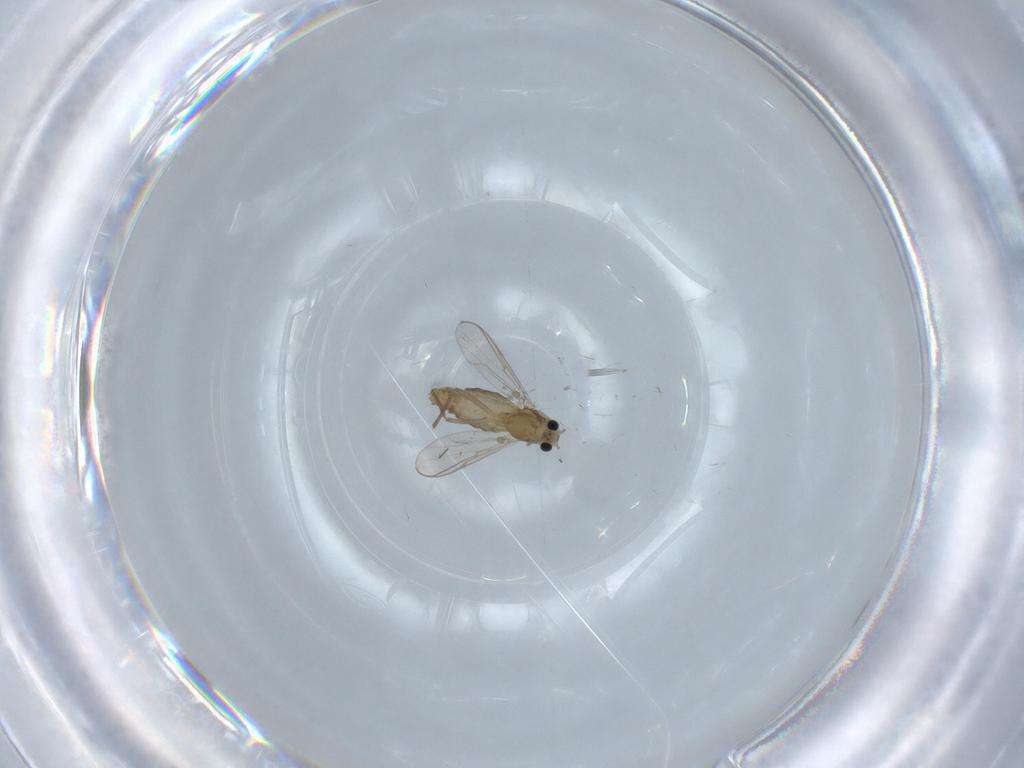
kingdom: Animalia
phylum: Arthropoda
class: Insecta
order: Diptera
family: Chironomidae
